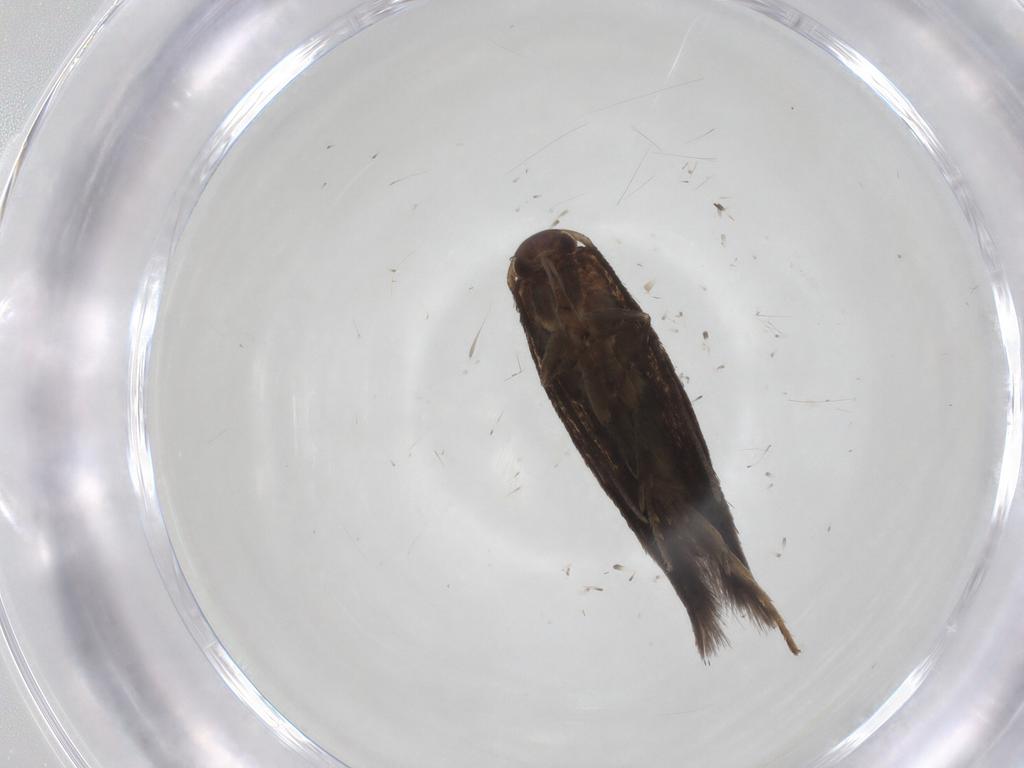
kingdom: Animalia
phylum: Arthropoda
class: Insecta
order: Lepidoptera
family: Elachistidae
